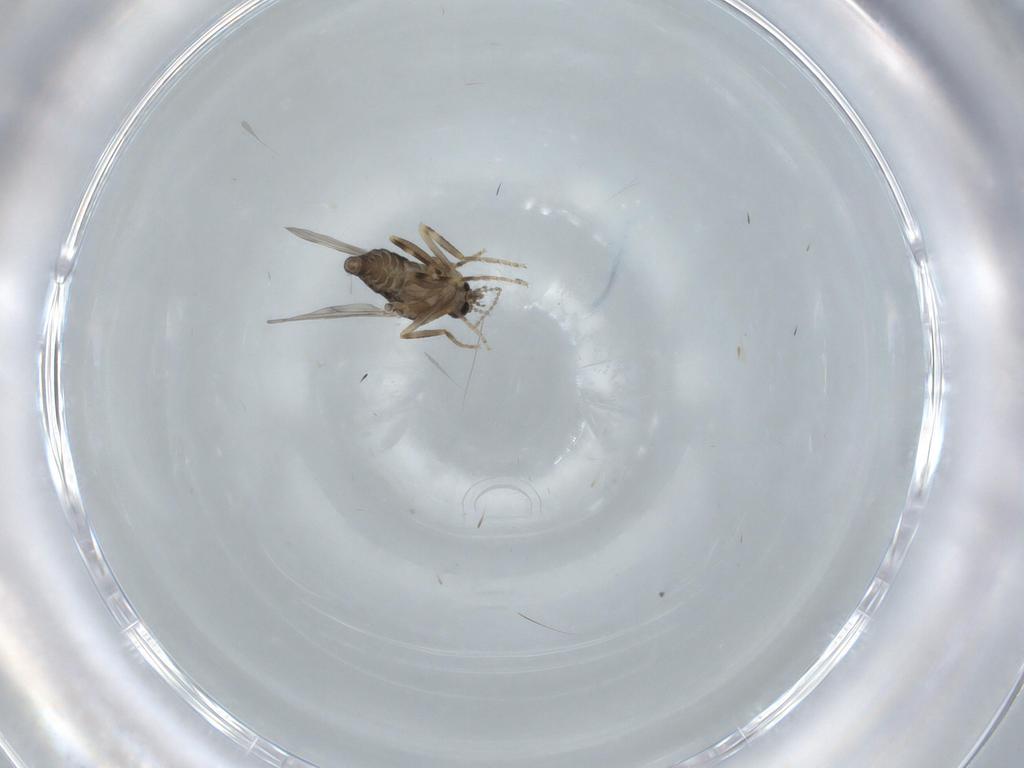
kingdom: Animalia
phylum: Arthropoda
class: Insecta
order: Diptera
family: Ceratopogonidae
